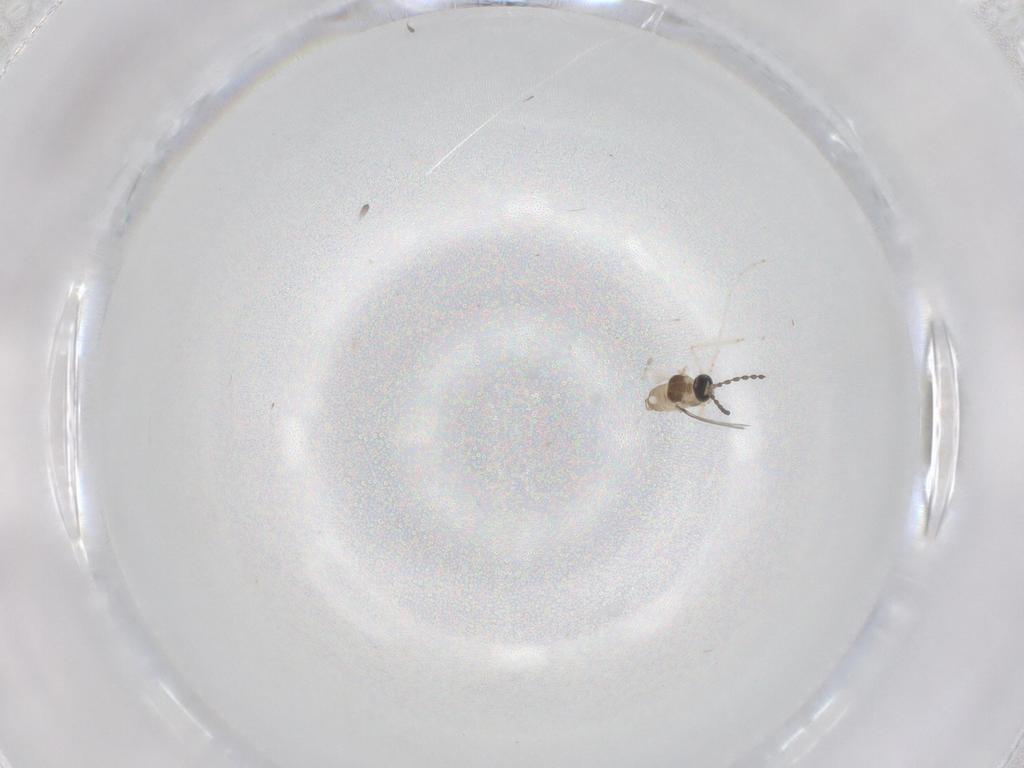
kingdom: Animalia
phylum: Arthropoda
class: Insecta
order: Diptera
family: Cecidomyiidae
